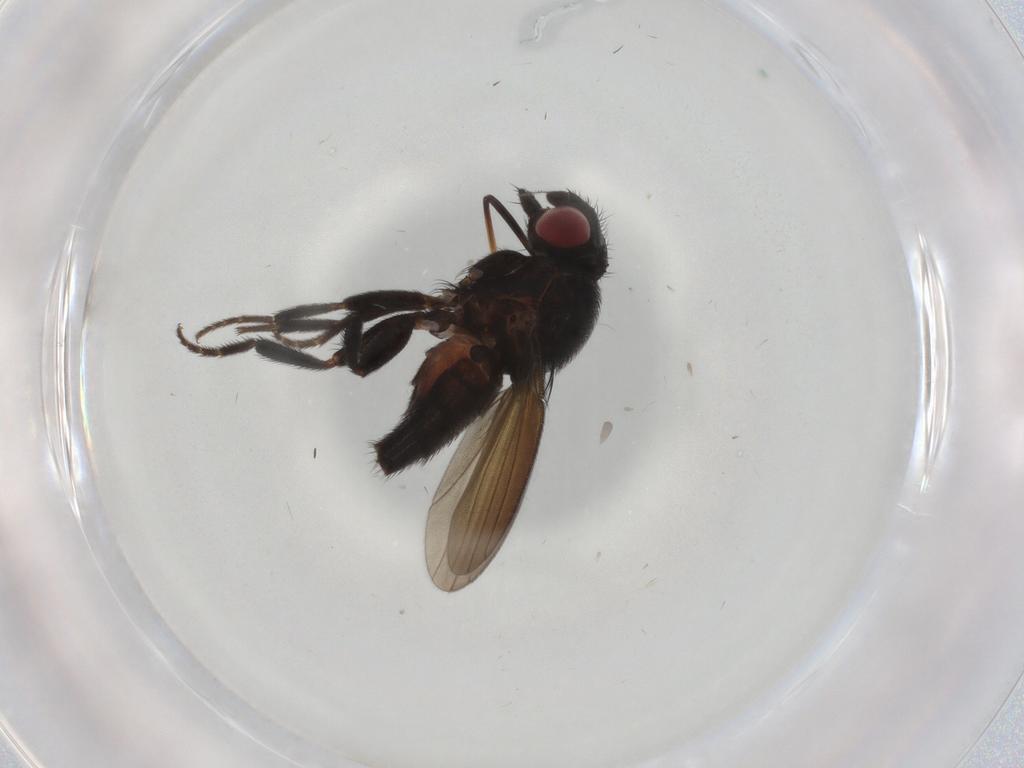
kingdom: Animalia
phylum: Arthropoda
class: Insecta
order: Diptera
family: Milichiidae
